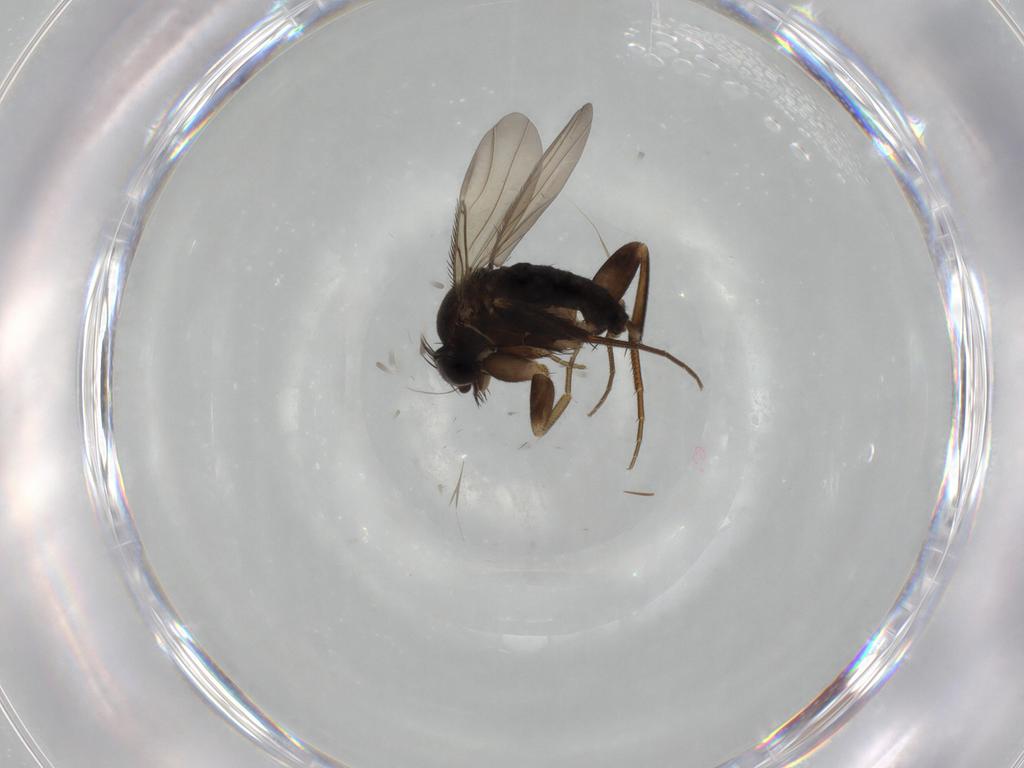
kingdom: Animalia
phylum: Arthropoda
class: Insecta
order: Diptera
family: Phoridae
